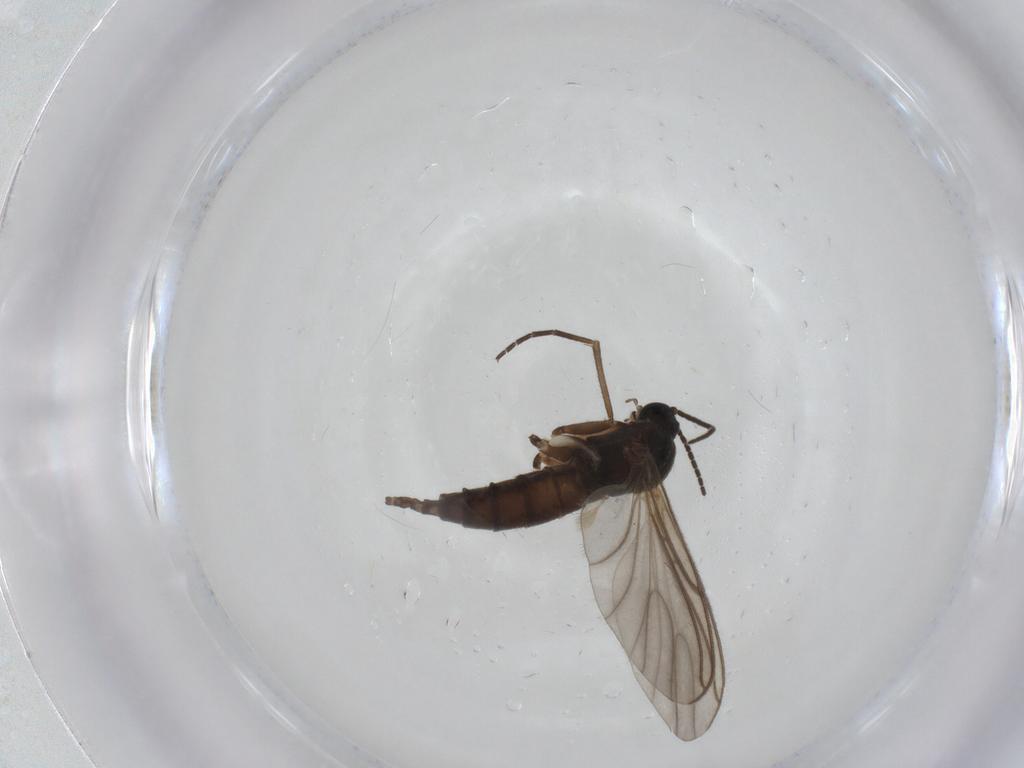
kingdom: Animalia
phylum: Arthropoda
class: Insecta
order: Diptera
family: Sciaridae
